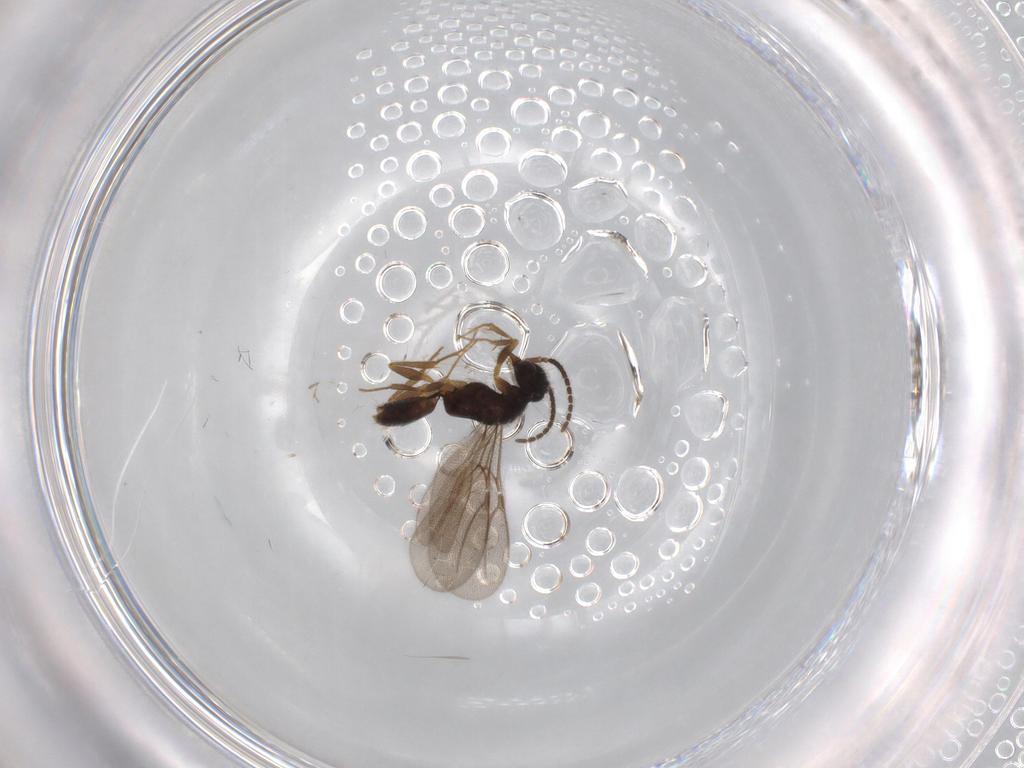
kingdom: Animalia
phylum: Arthropoda
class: Insecta
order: Hymenoptera
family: Bethylidae
